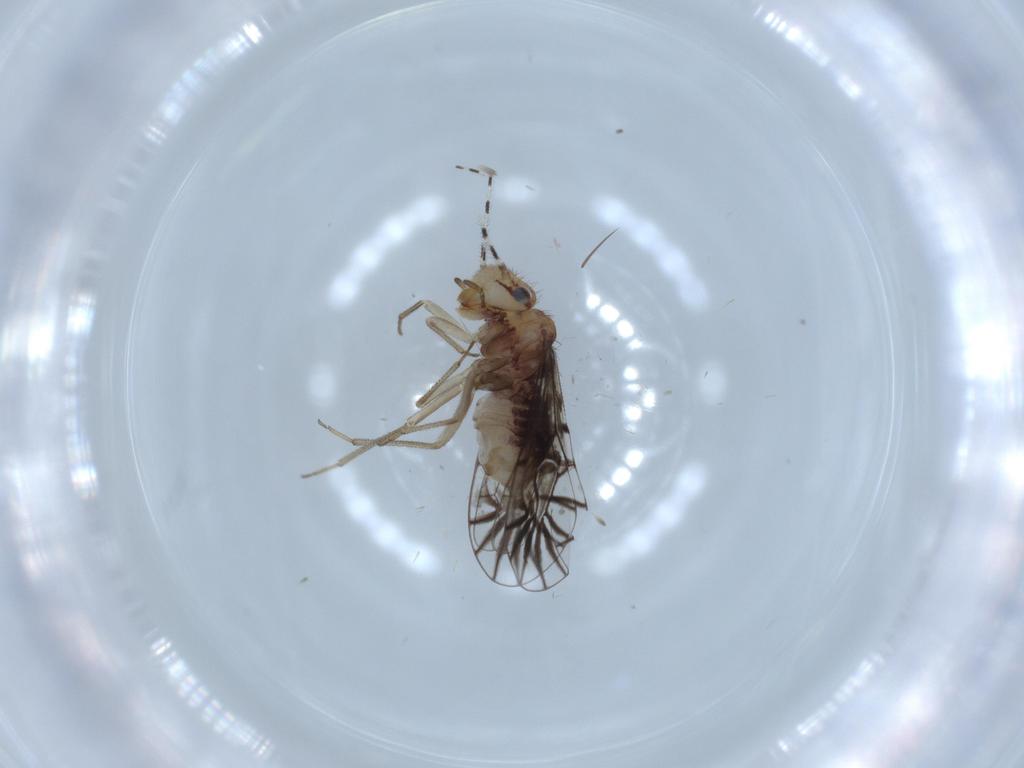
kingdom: Animalia
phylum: Arthropoda
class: Insecta
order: Psocodea
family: Amphipsocidae
